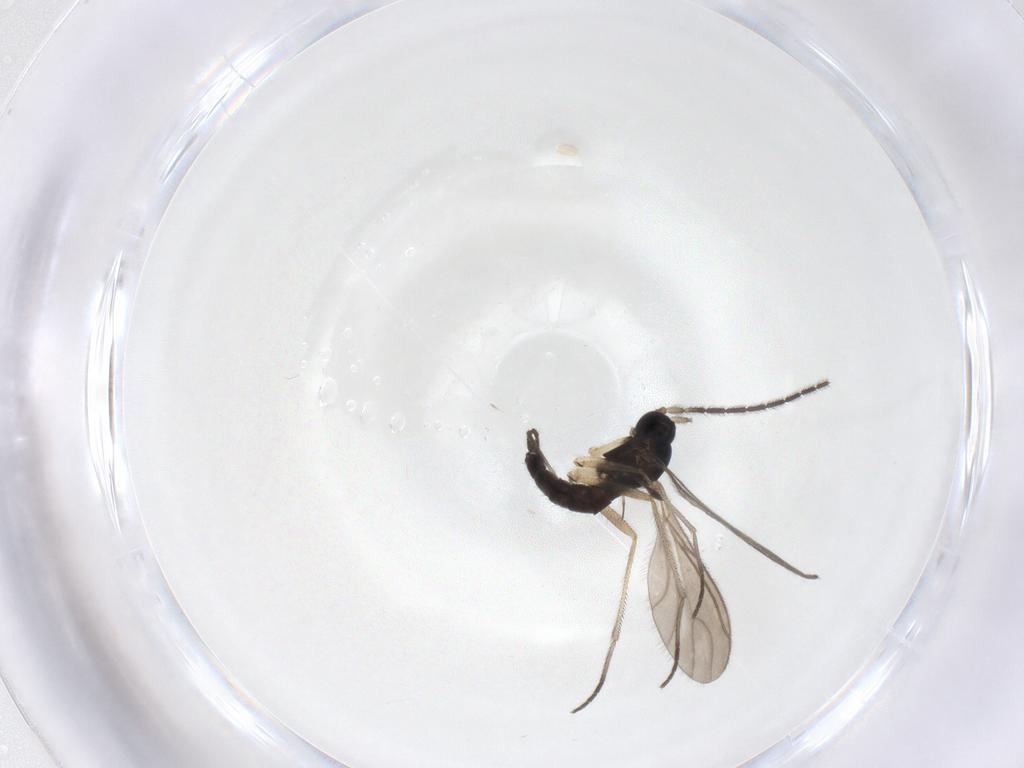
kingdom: Animalia
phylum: Arthropoda
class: Insecta
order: Diptera
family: Sciaridae
